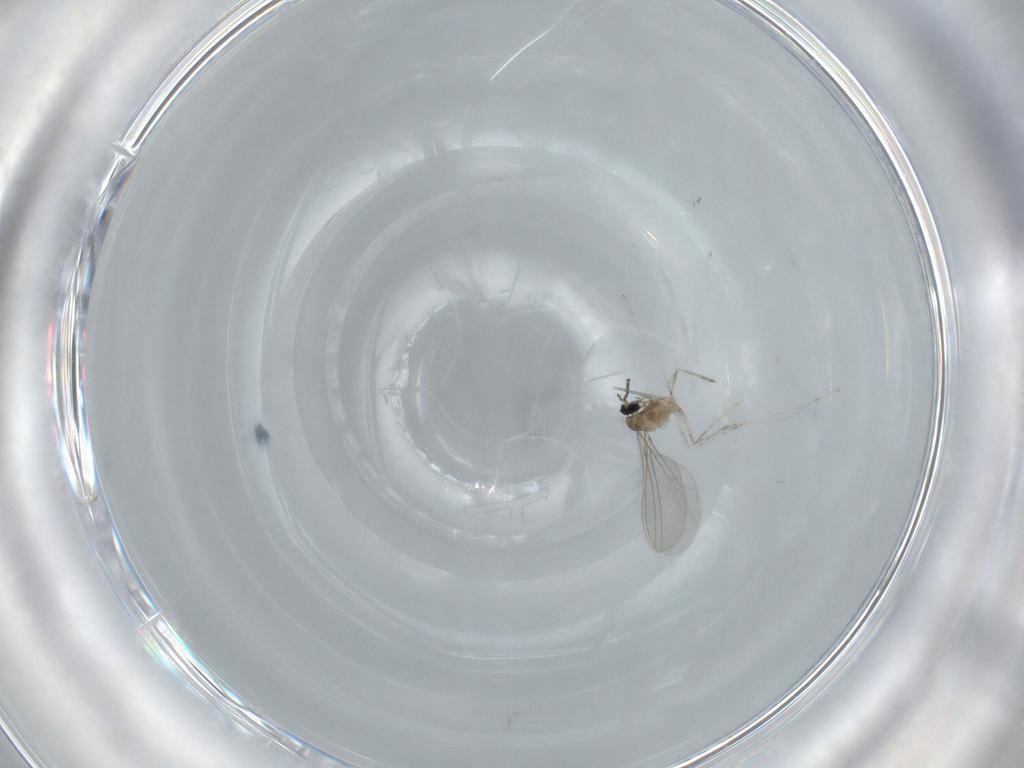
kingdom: Animalia
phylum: Arthropoda
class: Insecta
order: Diptera
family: Cecidomyiidae
